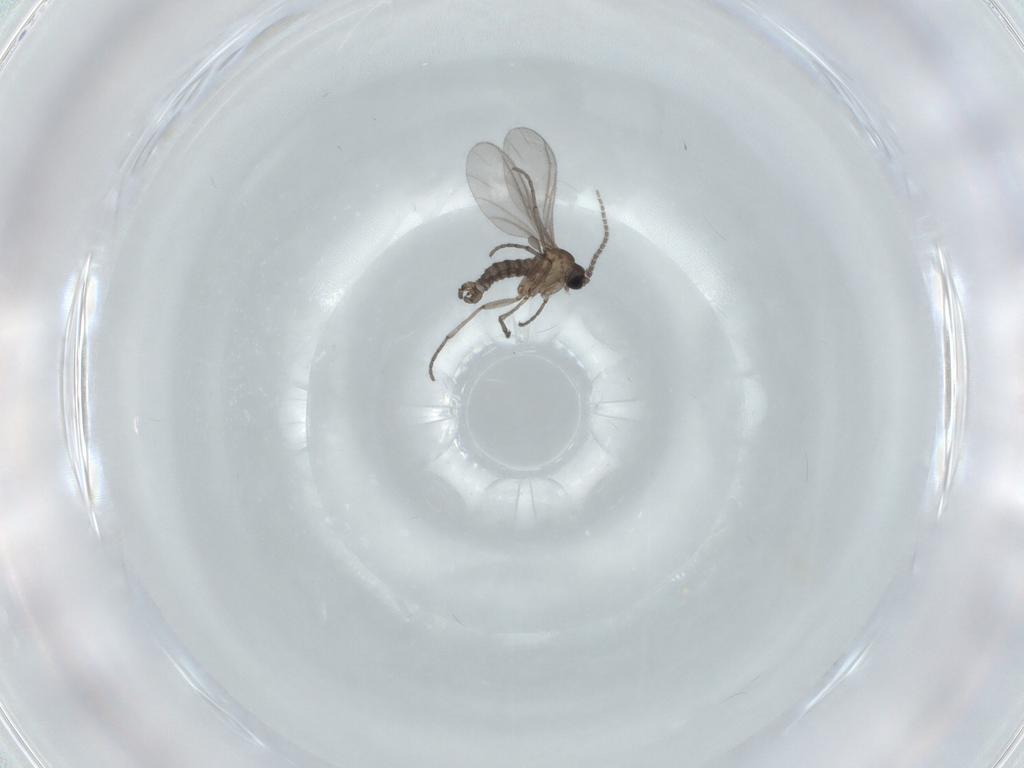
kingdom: Animalia
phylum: Arthropoda
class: Insecta
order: Diptera
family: Sciaridae
